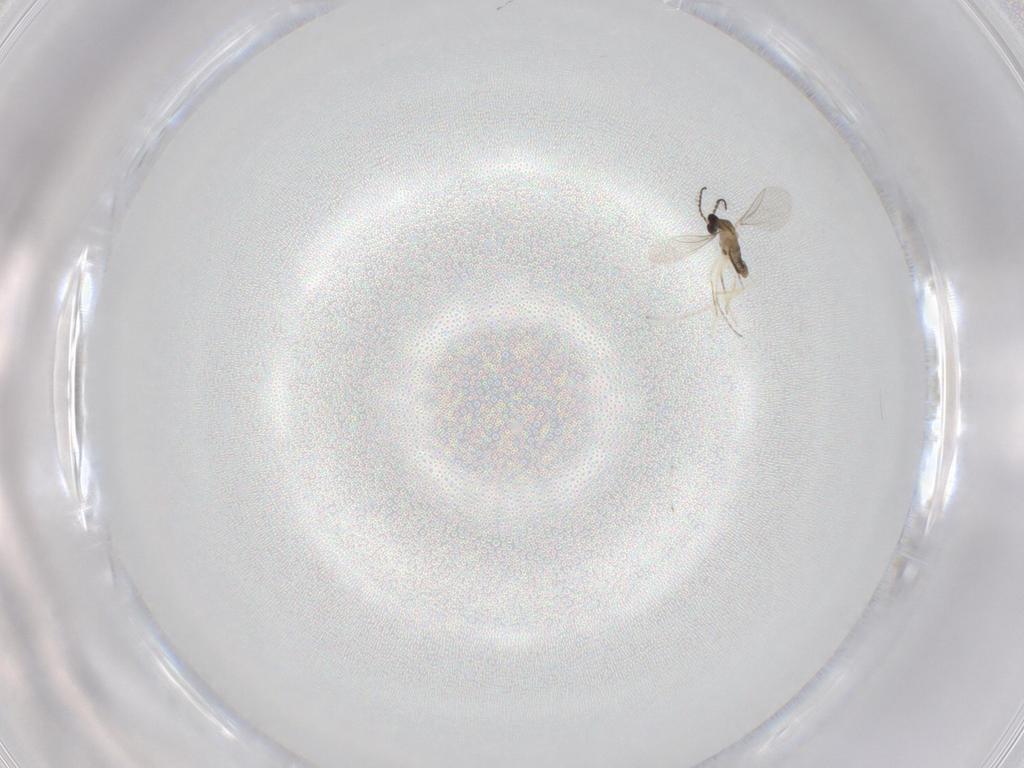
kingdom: Animalia
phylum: Arthropoda
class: Insecta
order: Diptera
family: Cecidomyiidae
